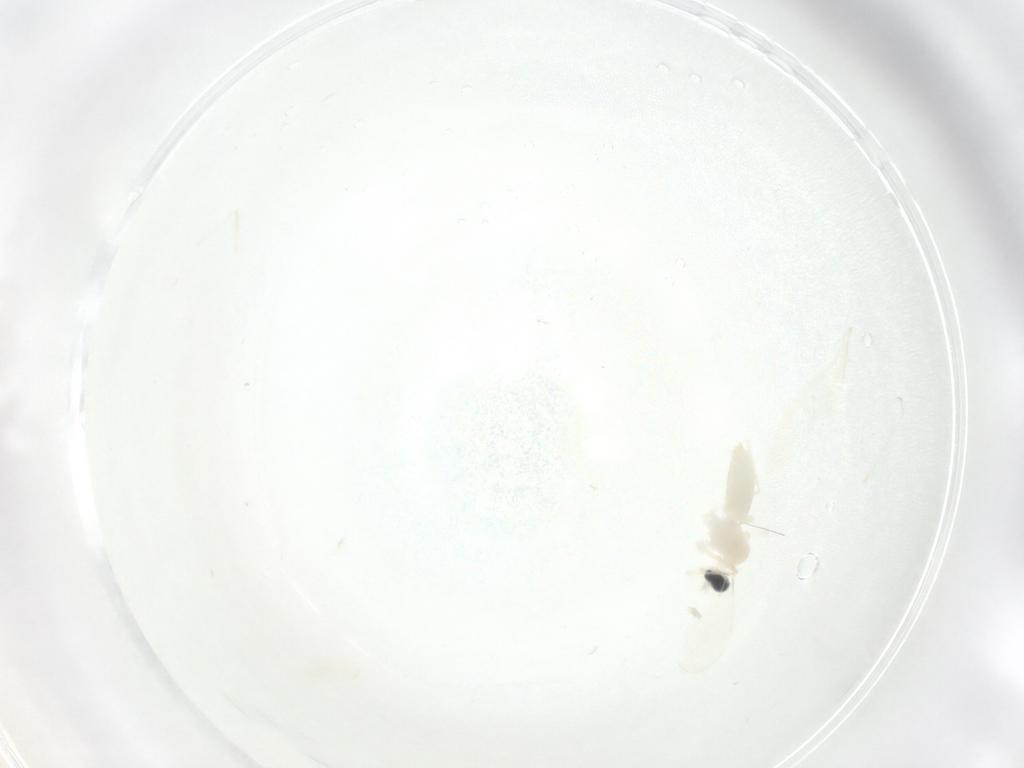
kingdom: Animalia
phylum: Arthropoda
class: Insecta
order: Diptera
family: Cecidomyiidae
